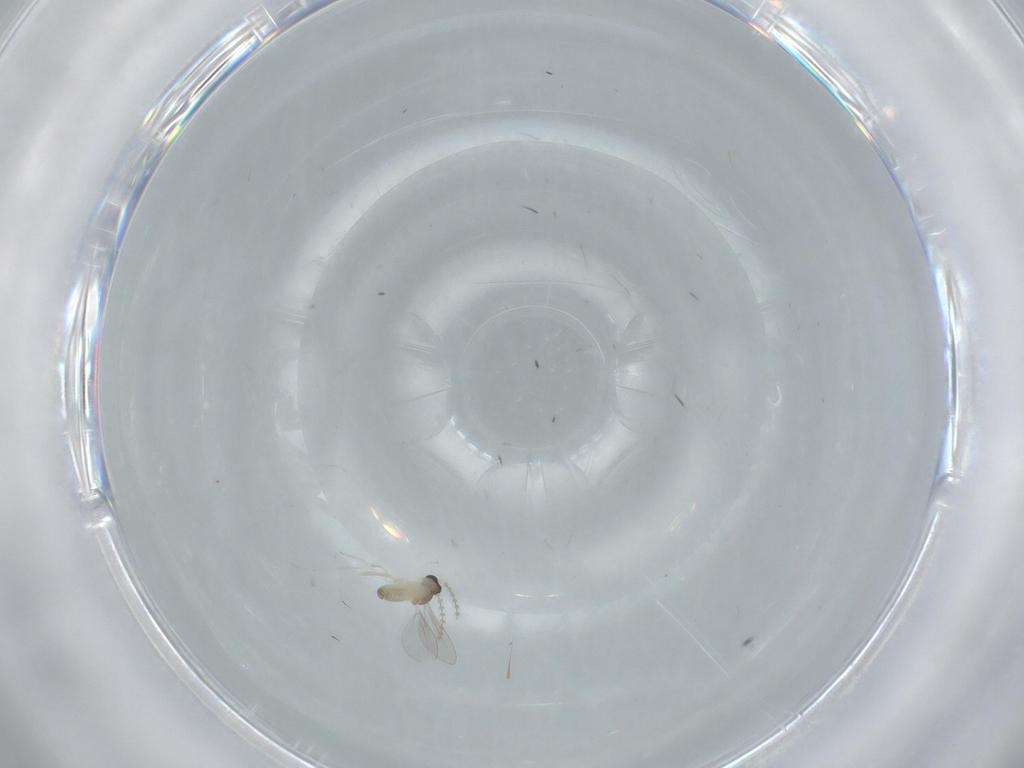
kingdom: Animalia
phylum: Arthropoda
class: Insecta
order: Diptera
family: Cecidomyiidae
